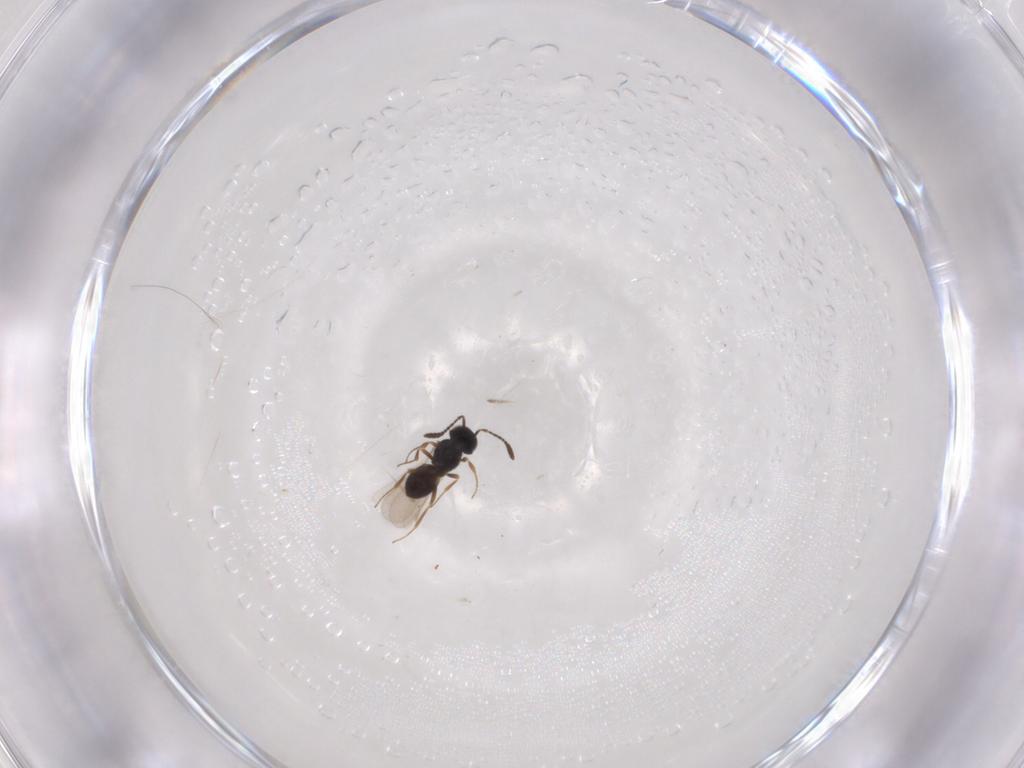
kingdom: Animalia
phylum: Arthropoda
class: Insecta
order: Hymenoptera
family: Scelionidae
